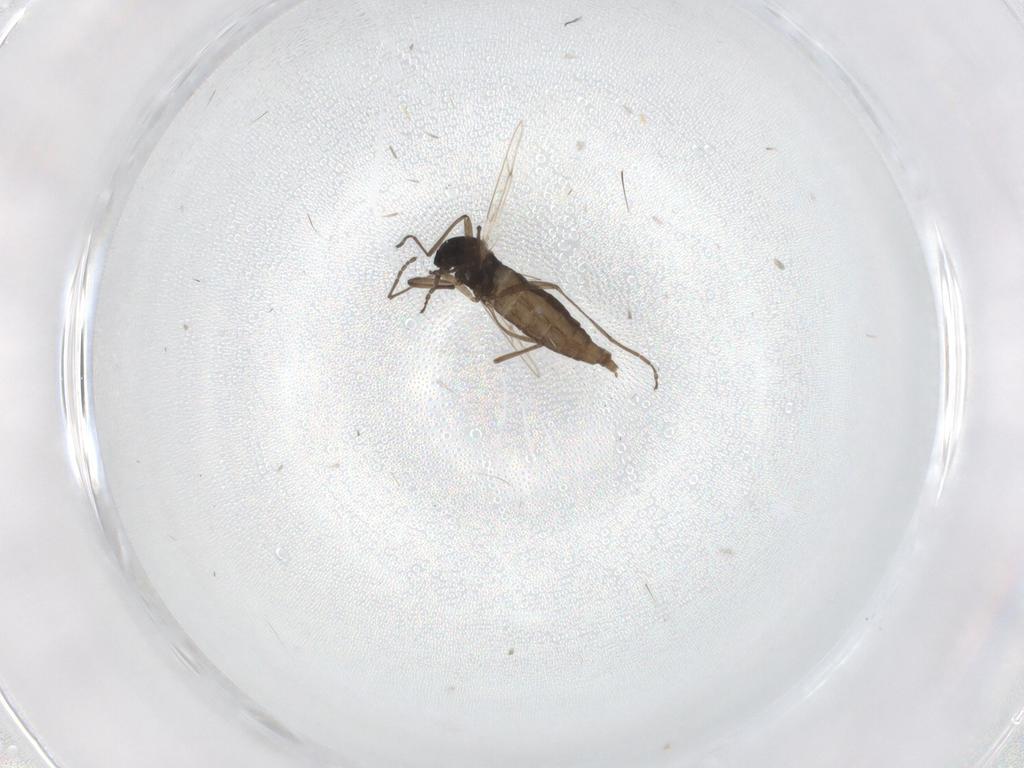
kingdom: Animalia
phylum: Arthropoda
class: Insecta
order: Diptera
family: Cecidomyiidae
